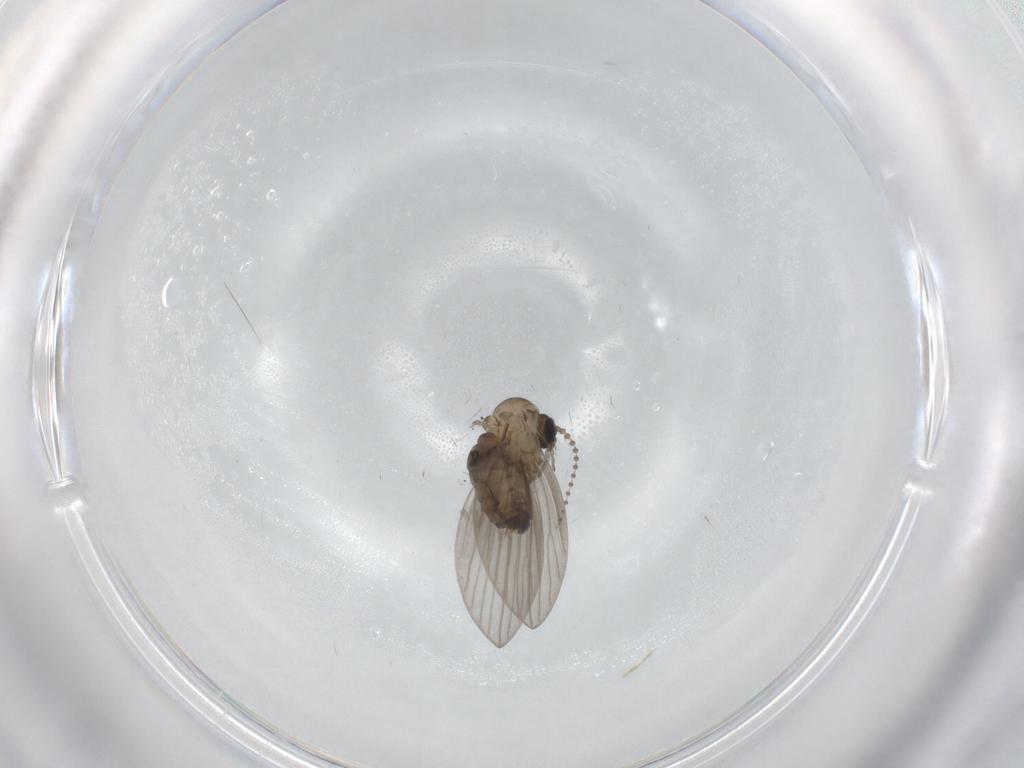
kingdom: Animalia
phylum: Arthropoda
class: Insecta
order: Diptera
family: Psychodidae
